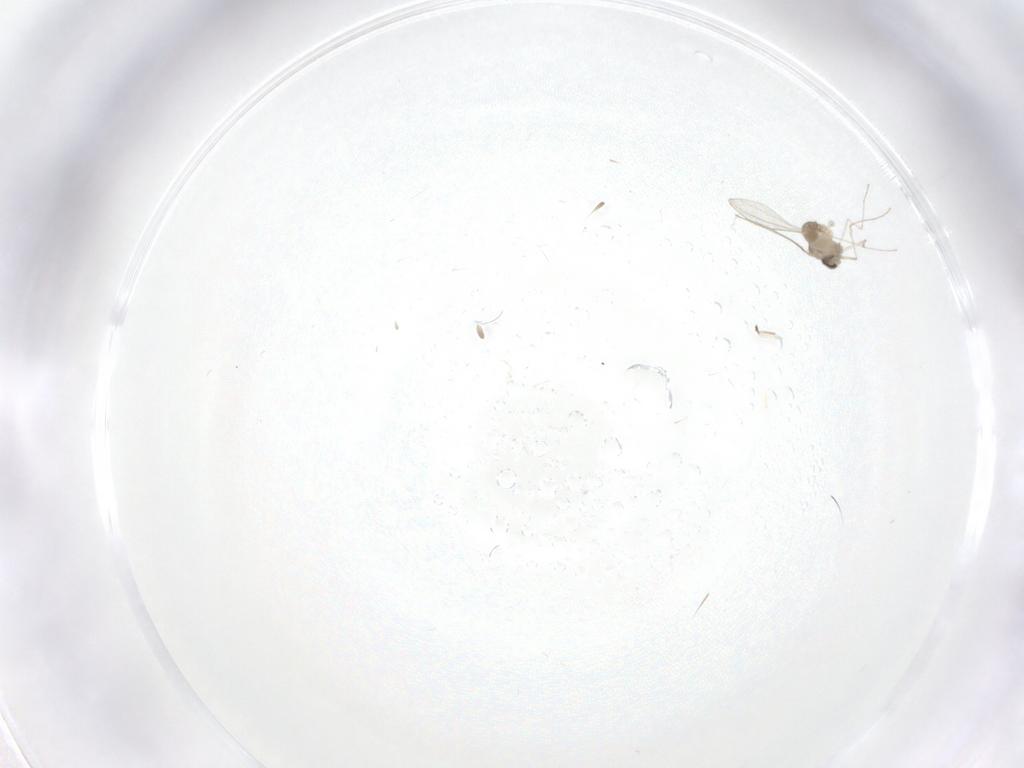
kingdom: Animalia
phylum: Arthropoda
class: Insecta
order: Diptera
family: Cecidomyiidae
